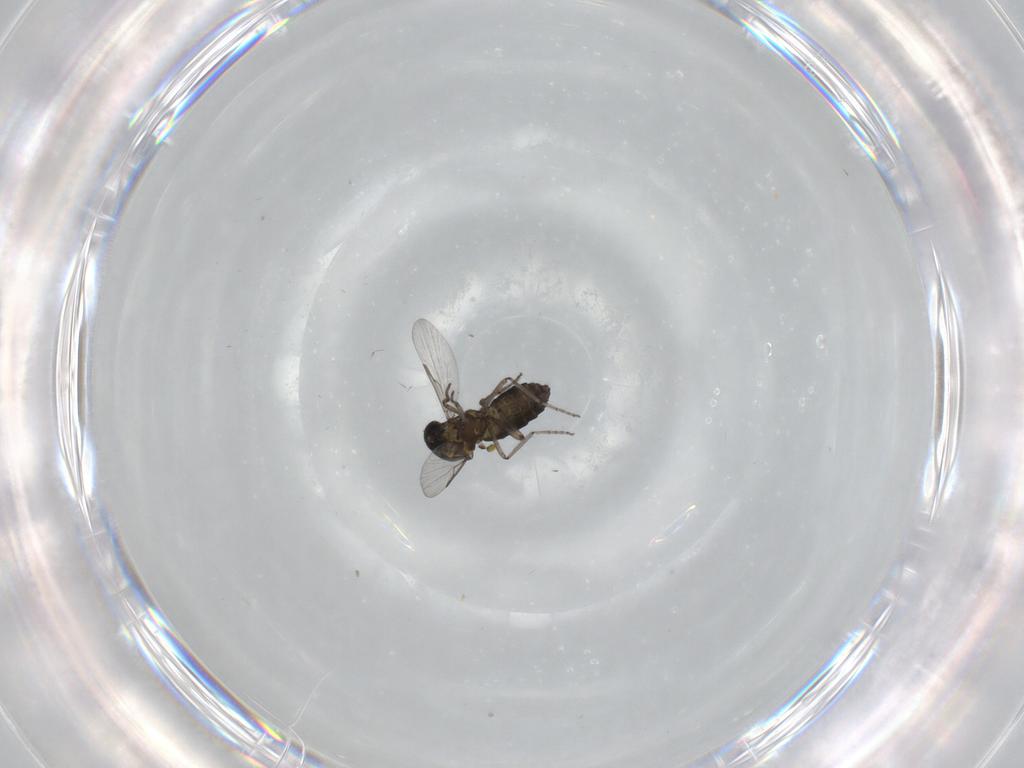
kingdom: Animalia
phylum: Arthropoda
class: Insecta
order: Diptera
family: Ceratopogonidae
